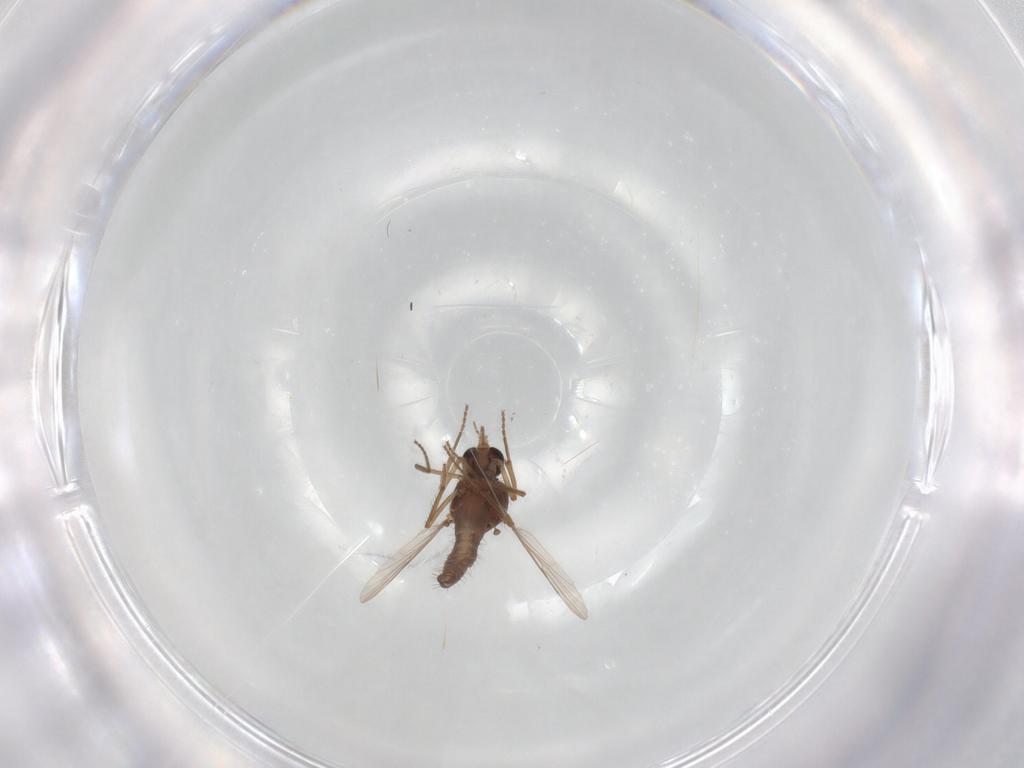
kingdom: Animalia
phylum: Arthropoda
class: Insecta
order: Diptera
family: Ceratopogonidae
